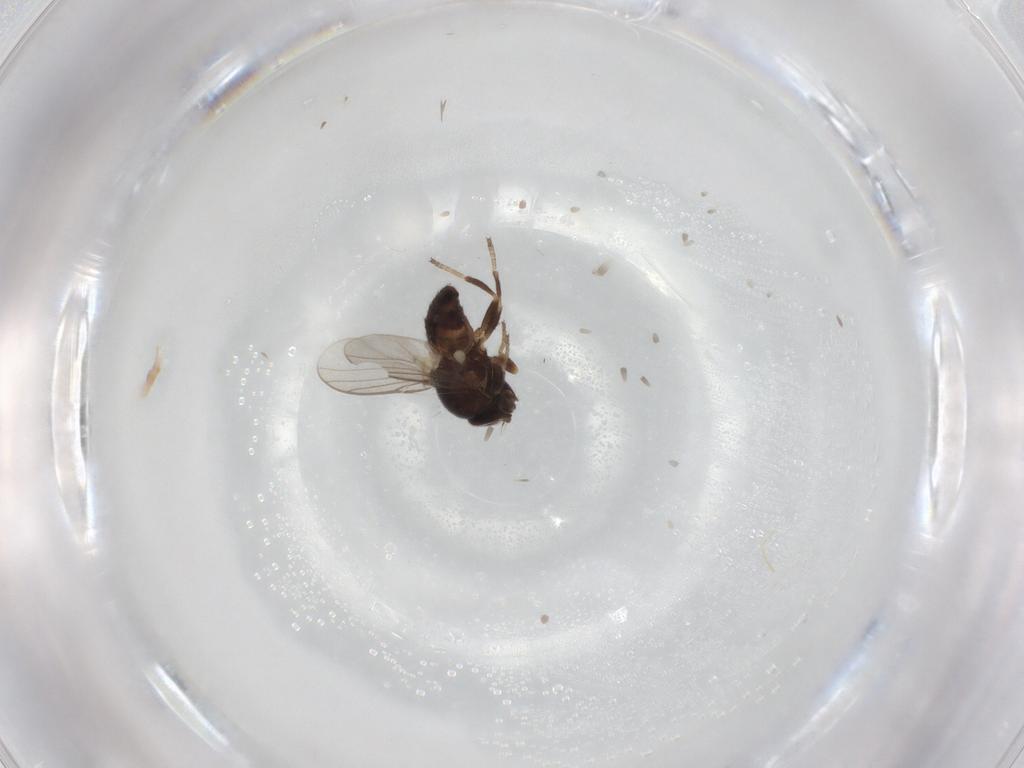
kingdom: Animalia
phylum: Arthropoda
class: Insecta
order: Diptera
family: Chloropidae
